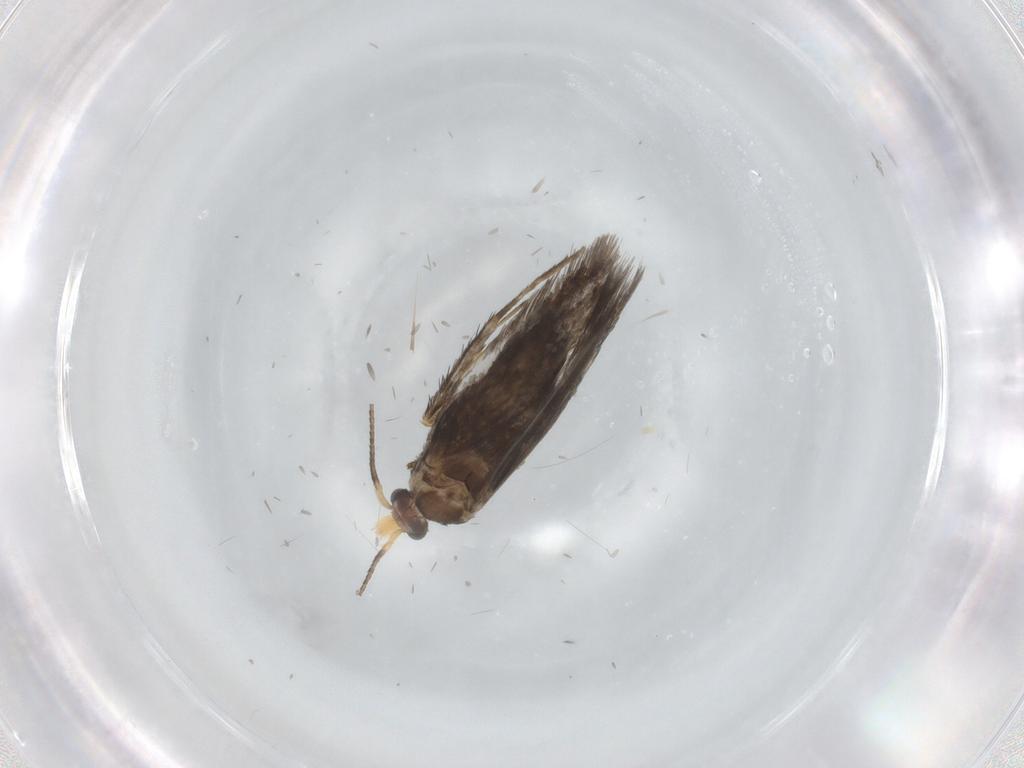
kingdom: Animalia
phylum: Arthropoda
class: Insecta
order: Lepidoptera
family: Nepticulidae
